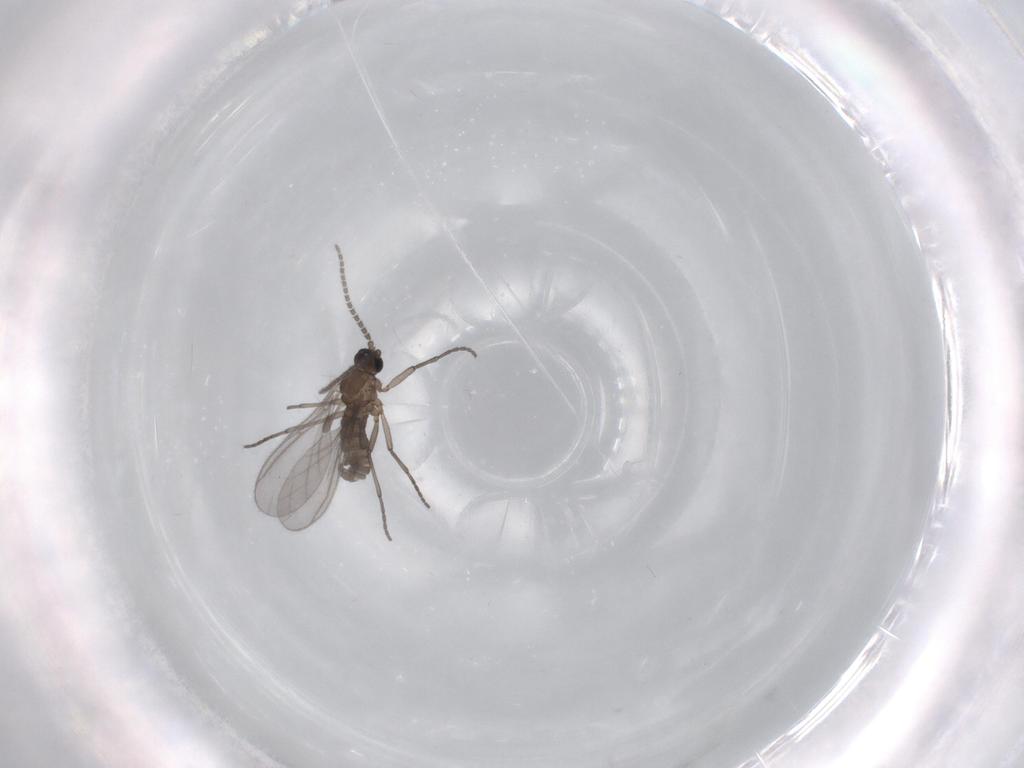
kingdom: Animalia
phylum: Arthropoda
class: Insecta
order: Diptera
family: Sciaridae
